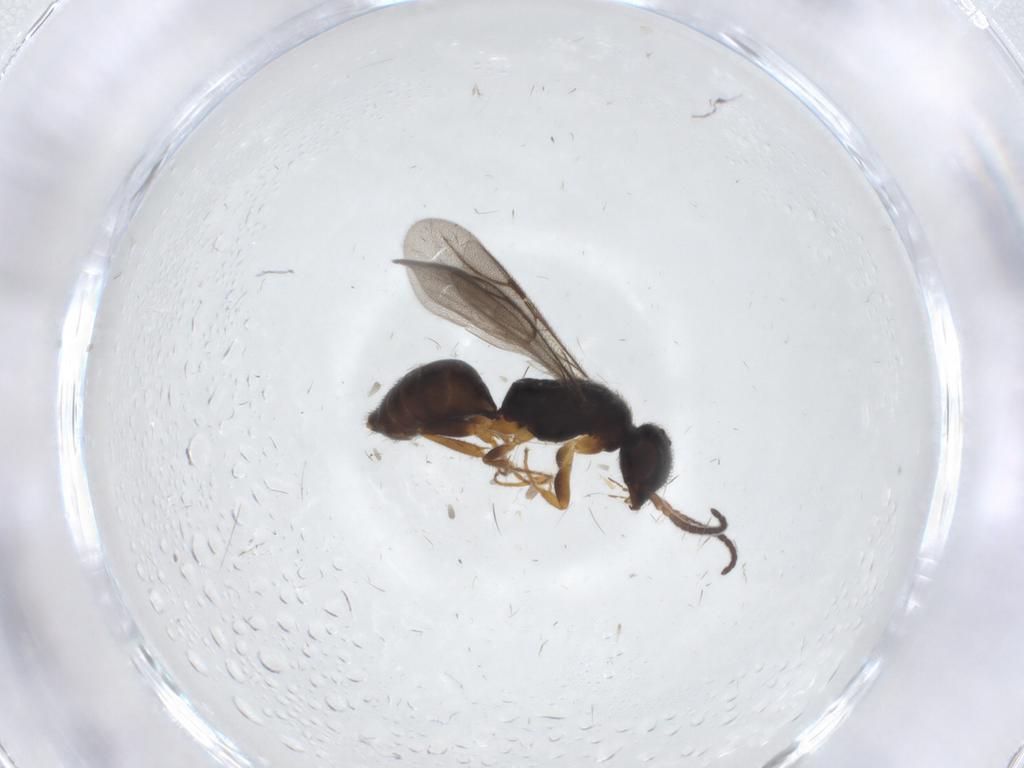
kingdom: Animalia
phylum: Arthropoda
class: Insecta
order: Hymenoptera
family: Bethylidae
